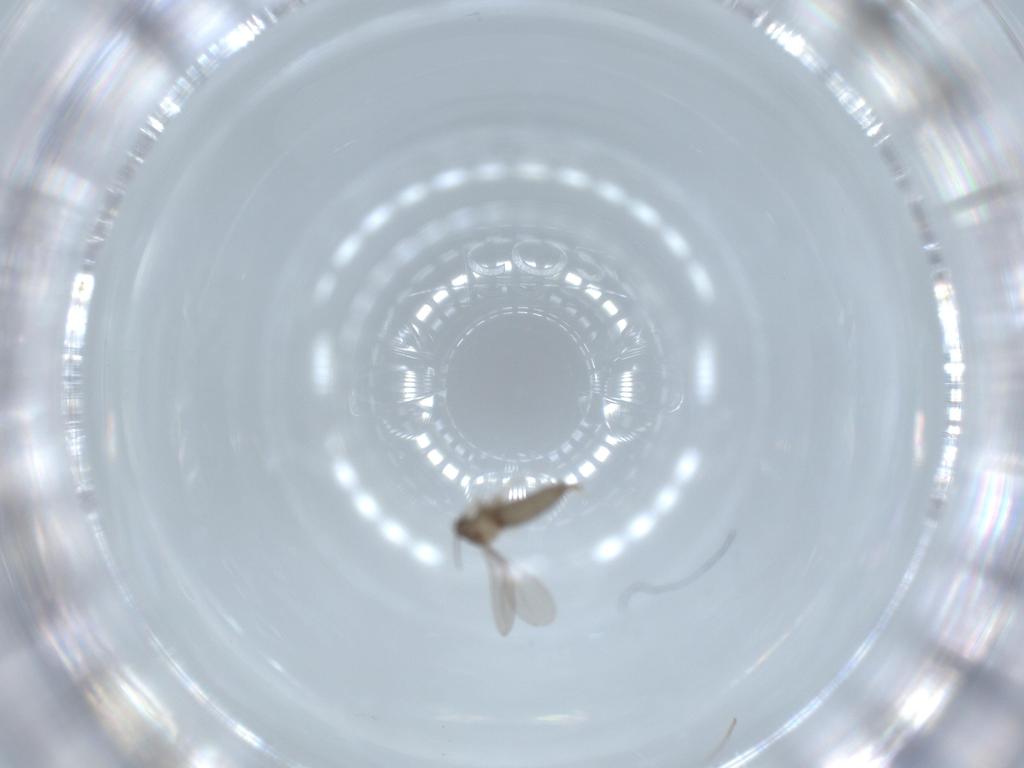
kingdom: Animalia
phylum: Arthropoda
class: Insecta
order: Diptera
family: Sciaridae
